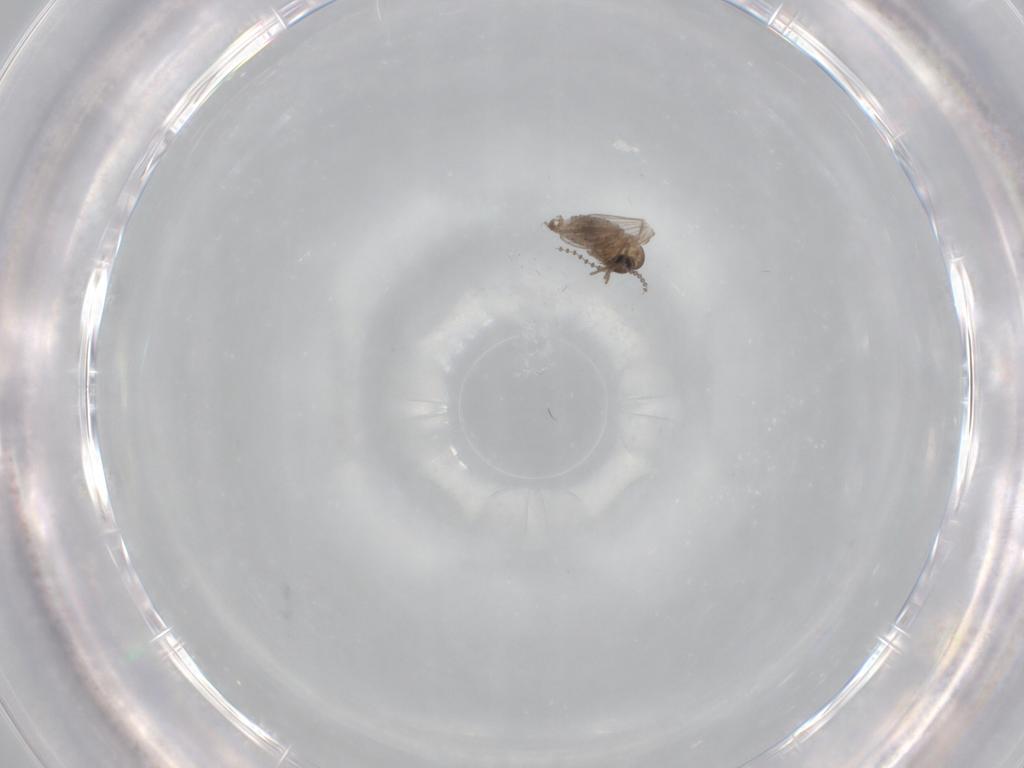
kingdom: Animalia
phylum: Arthropoda
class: Insecta
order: Diptera
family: Psychodidae
